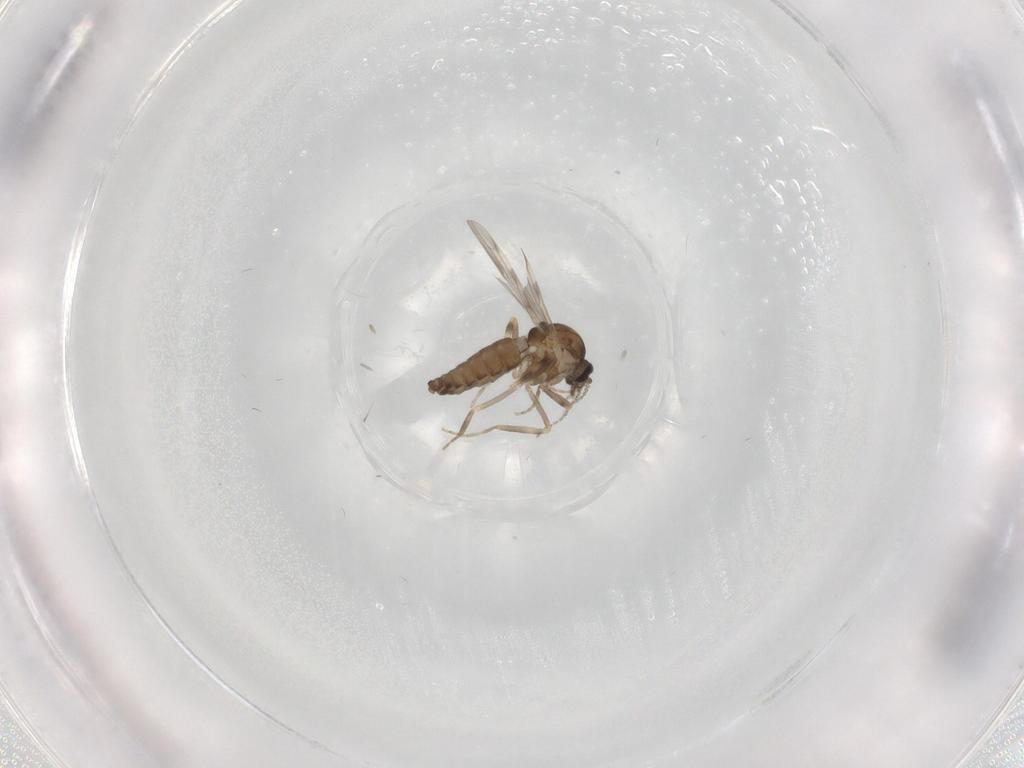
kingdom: Animalia
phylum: Arthropoda
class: Insecta
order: Diptera
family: Ceratopogonidae
